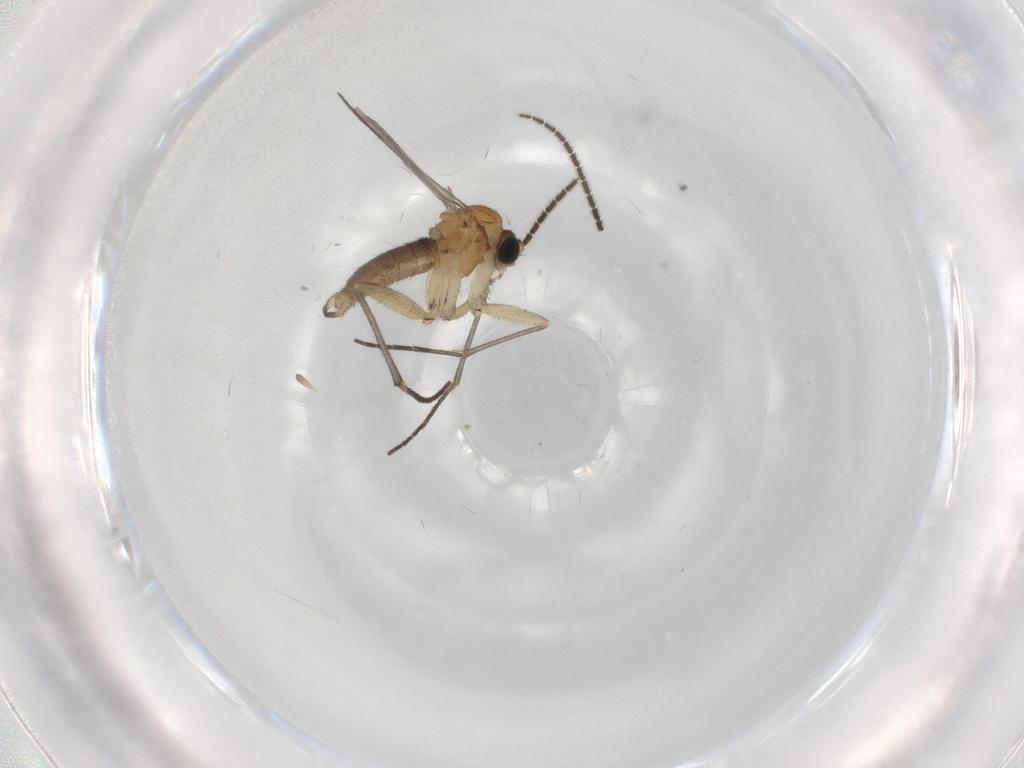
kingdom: Animalia
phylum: Arthropoda
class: Insecta
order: Diptera
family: Sciaridae
